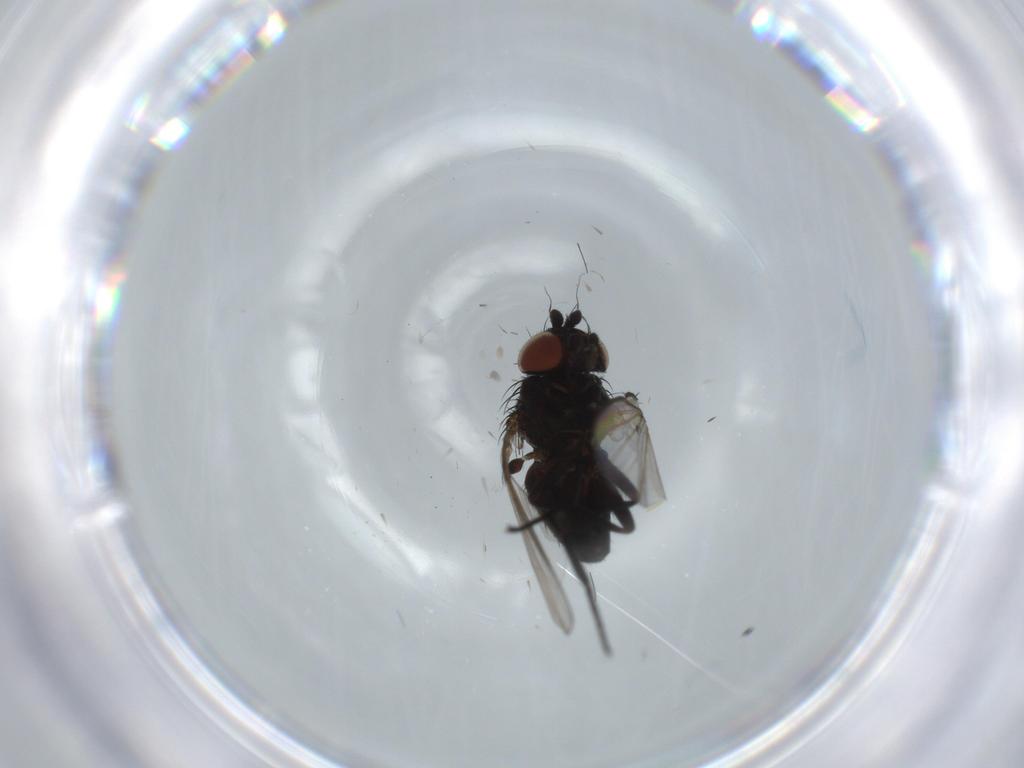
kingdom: Animalia
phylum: Arthropoda
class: Insecta
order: Diptera
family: Milichiidae
